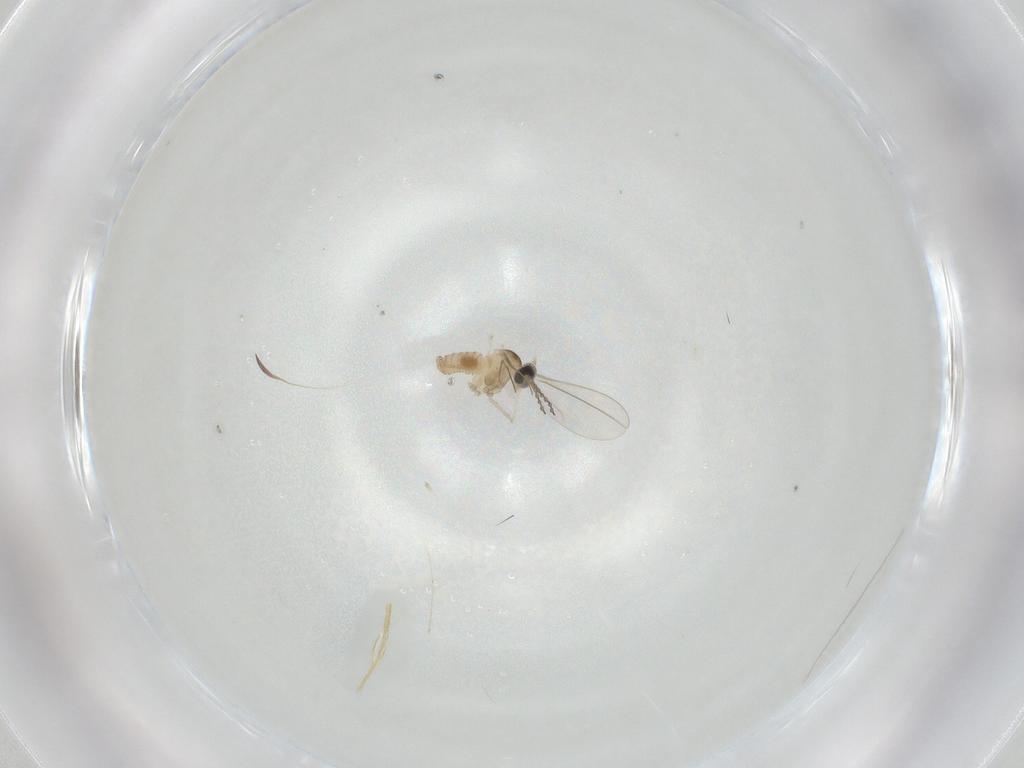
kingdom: Animalia
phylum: Arthropoda
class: Insecta
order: Diptera
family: Cecidomyiidae
